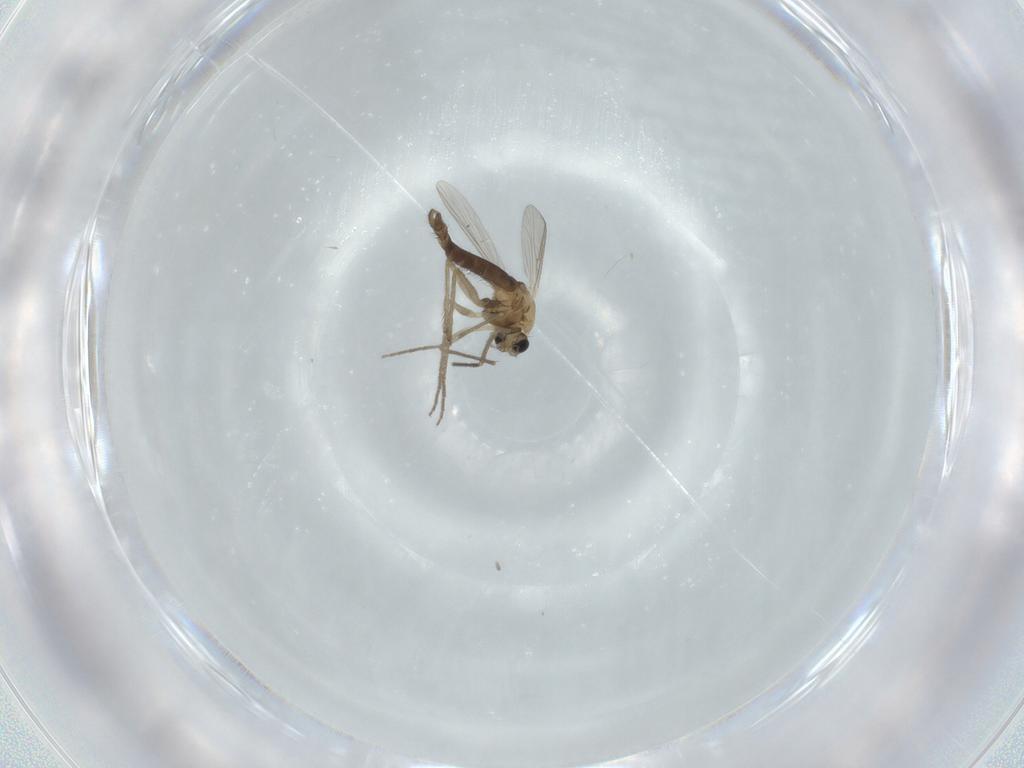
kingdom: Animalia
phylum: Arthropoda
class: Insecta
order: Diptera
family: Chironomidae
